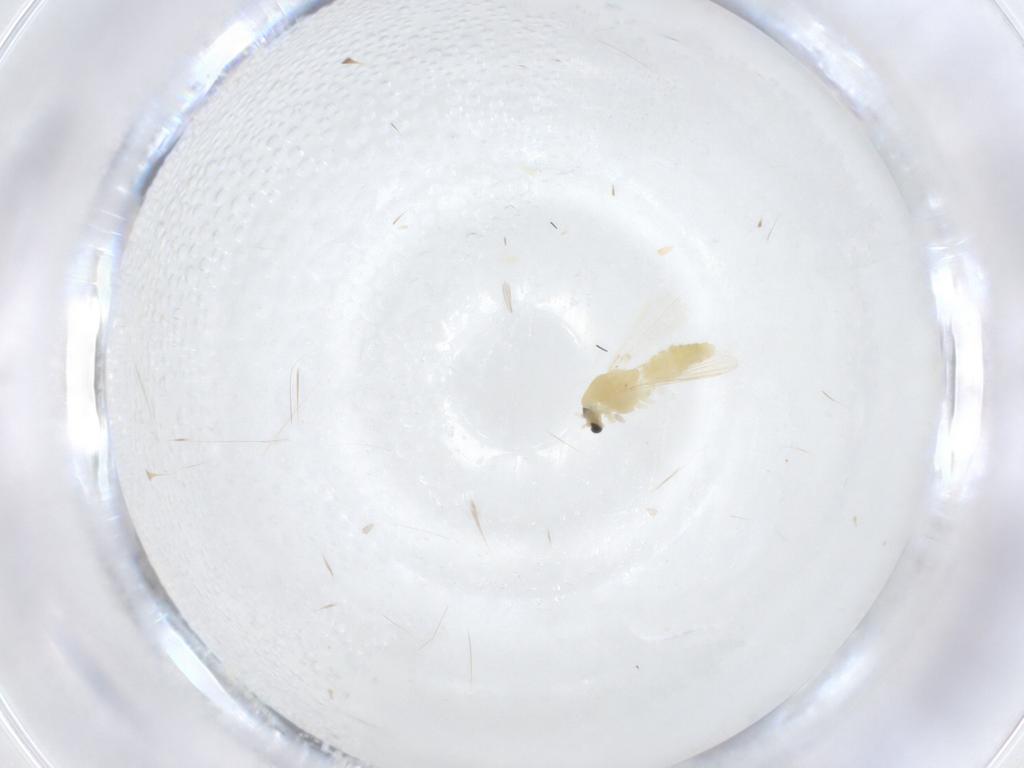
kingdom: Animalia
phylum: Arthropoda
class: Insecta
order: Diptera
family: Chironomidae
